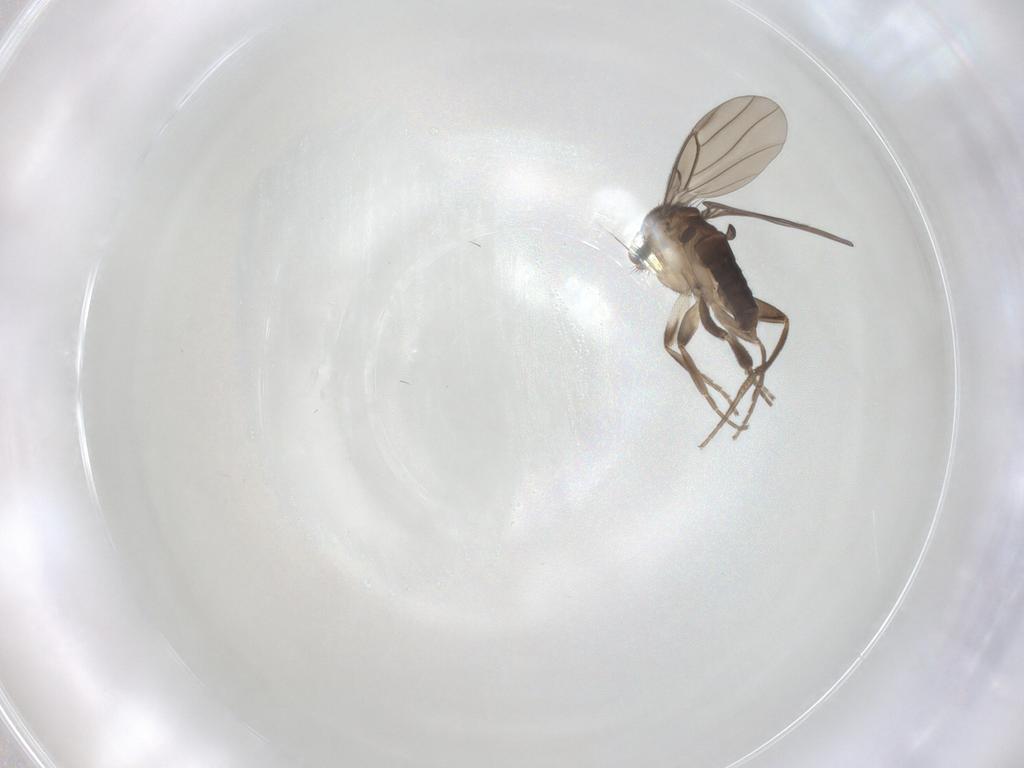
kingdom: Animalia
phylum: Arthropoda
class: Insecta
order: Diptera
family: Sciaridae
